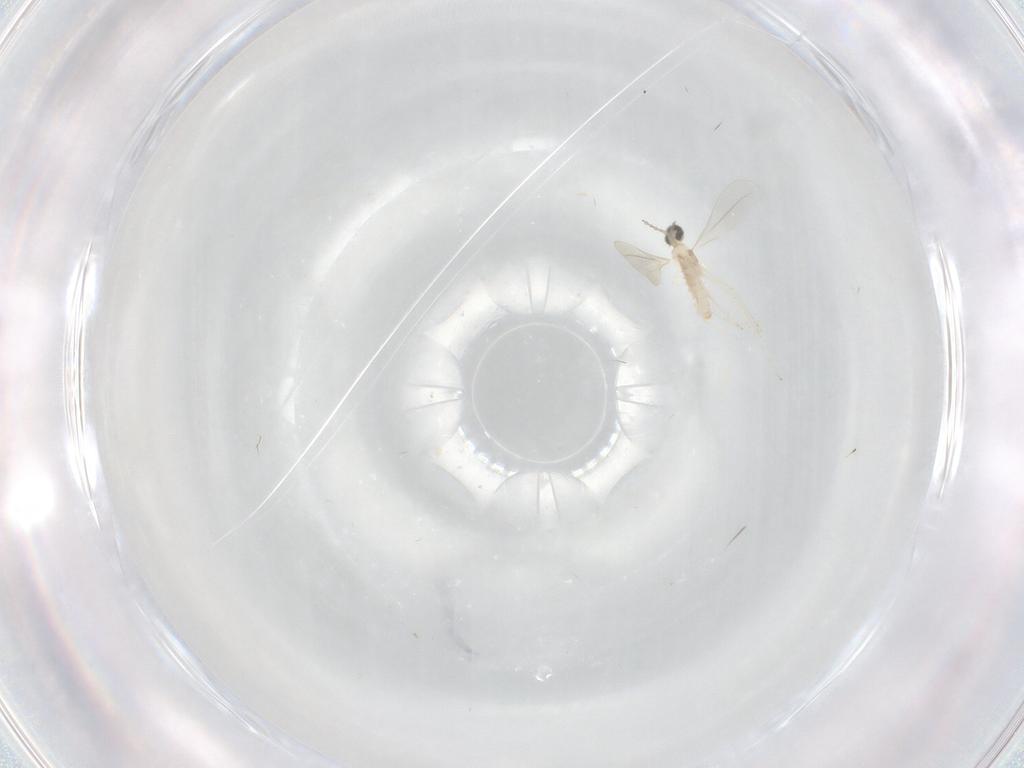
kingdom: Animalia
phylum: Arthropoda
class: Insecta
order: Diptera
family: Cecidomyiidae
